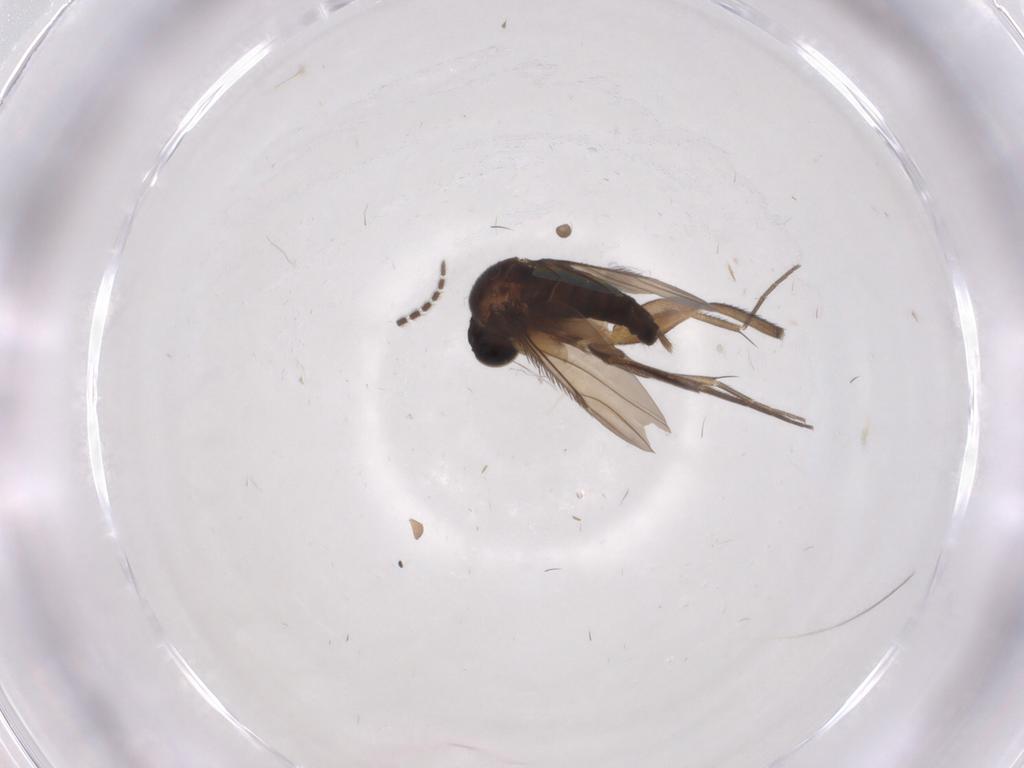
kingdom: Animalia
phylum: Arthropoda
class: Insecta
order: Diptera
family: Phoridae
